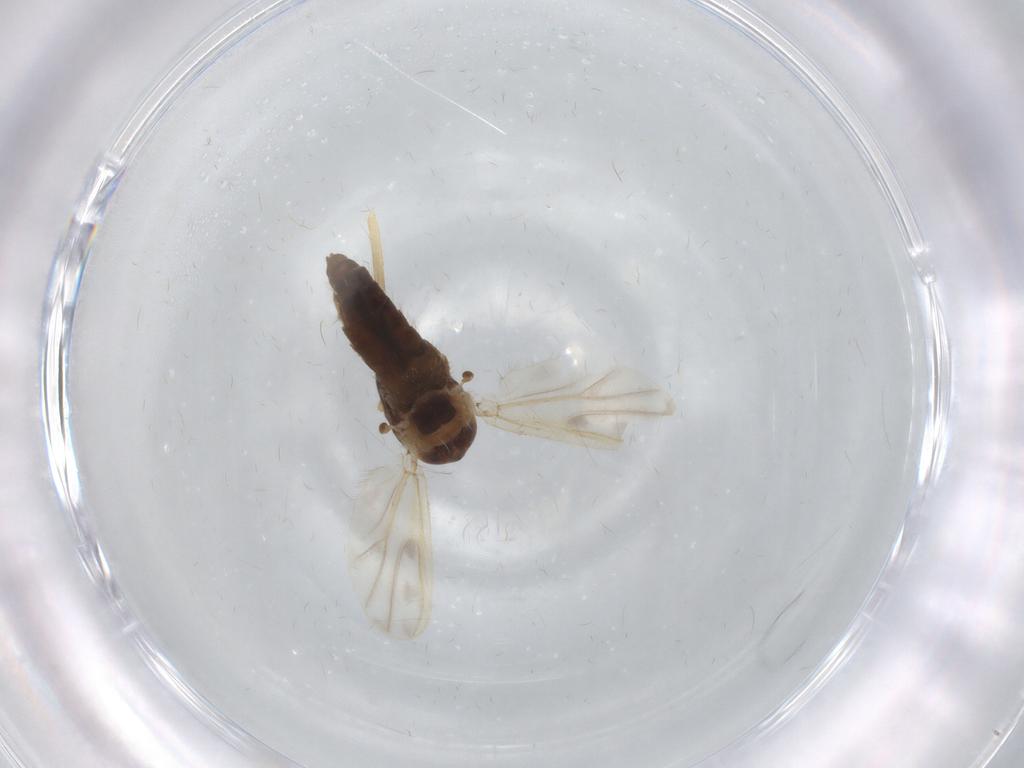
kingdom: Animalia
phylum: Arthropoda
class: Insecta
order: Diptera
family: Chironomidae
